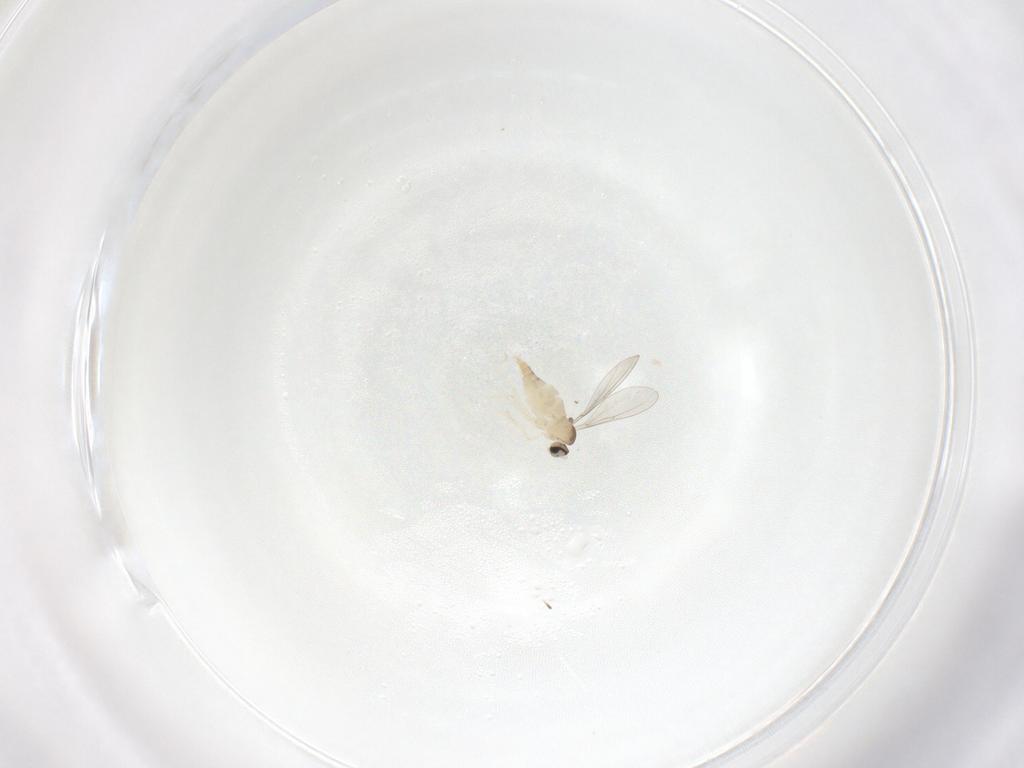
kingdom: Animalia
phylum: Arthropoda
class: Insecta
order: Diptera
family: Cecidomyiidae
